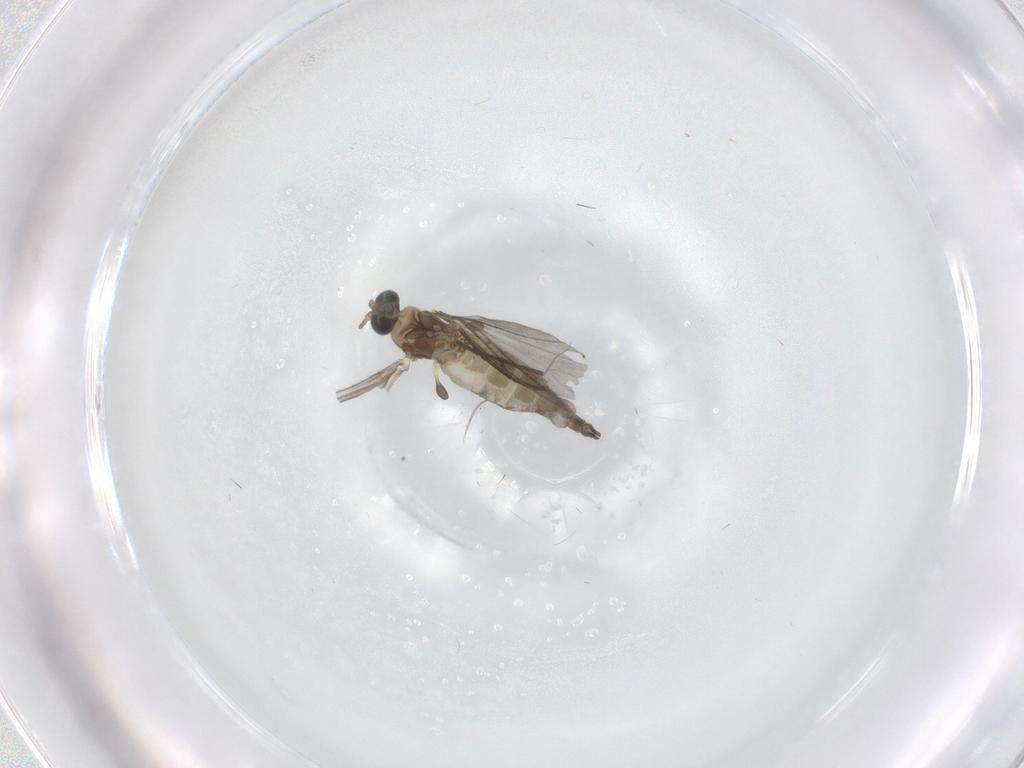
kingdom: Animalia
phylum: Arthropoda
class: Insecta
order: Diptera
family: Sciaridae
